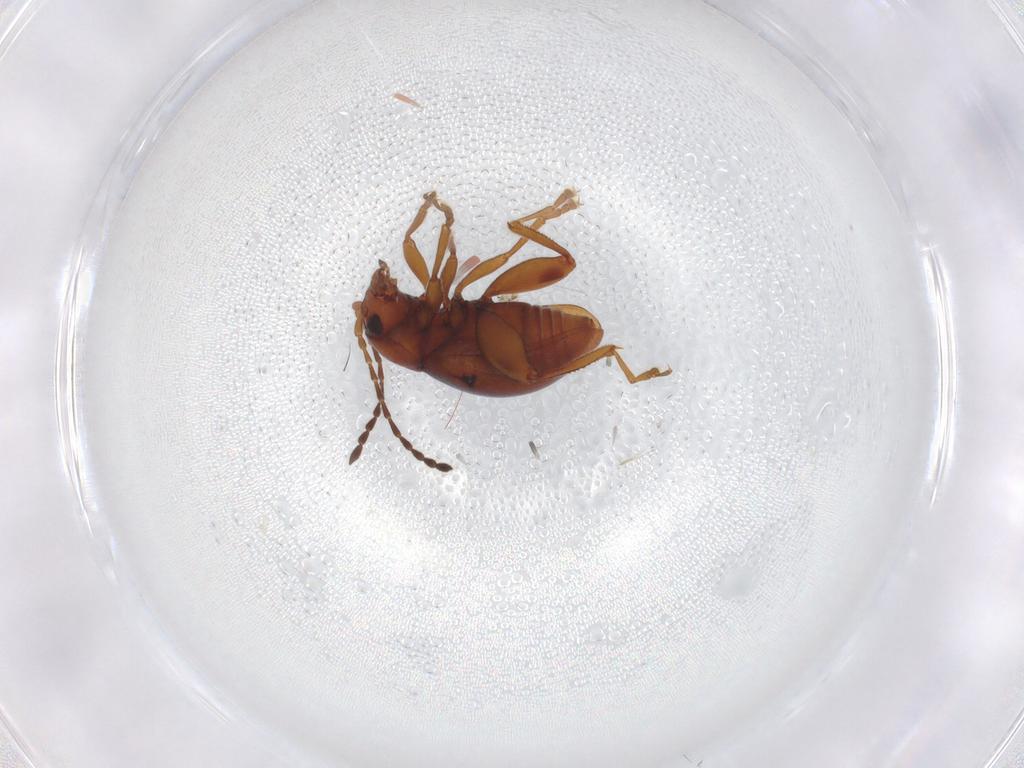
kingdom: Animalia
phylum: Arthropoda
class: Insecta
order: Coleoptera
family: Chrysomelidae
